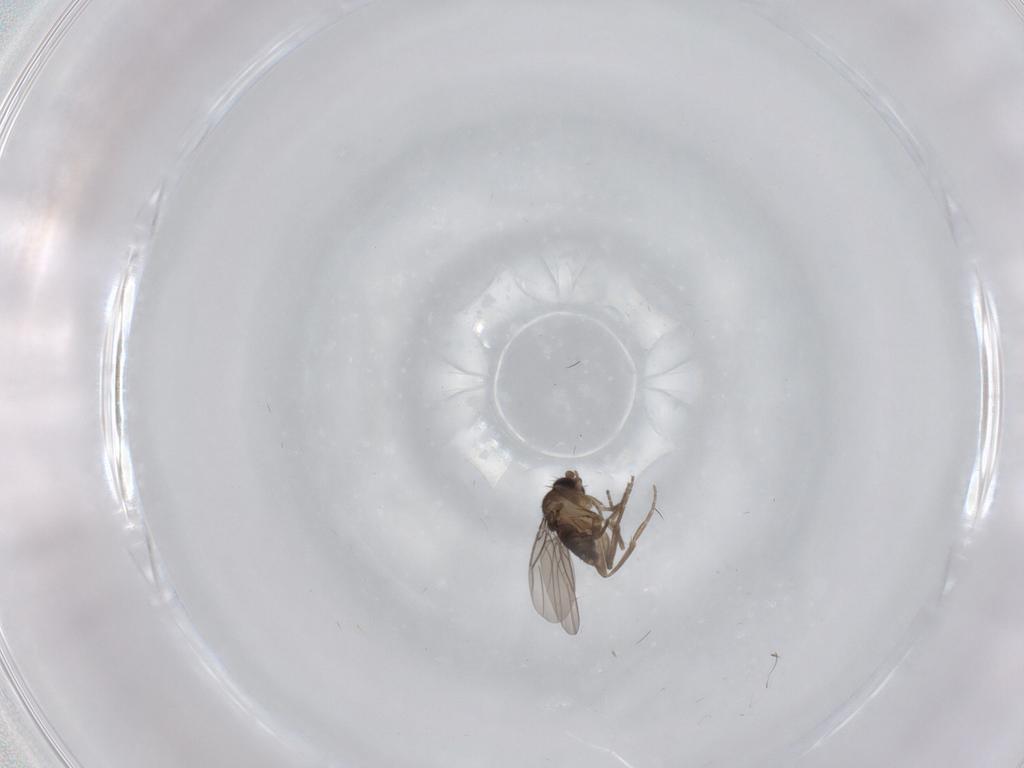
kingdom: Animalia
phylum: Arthropoda
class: Insecta
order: Diptera
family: Phoridae
